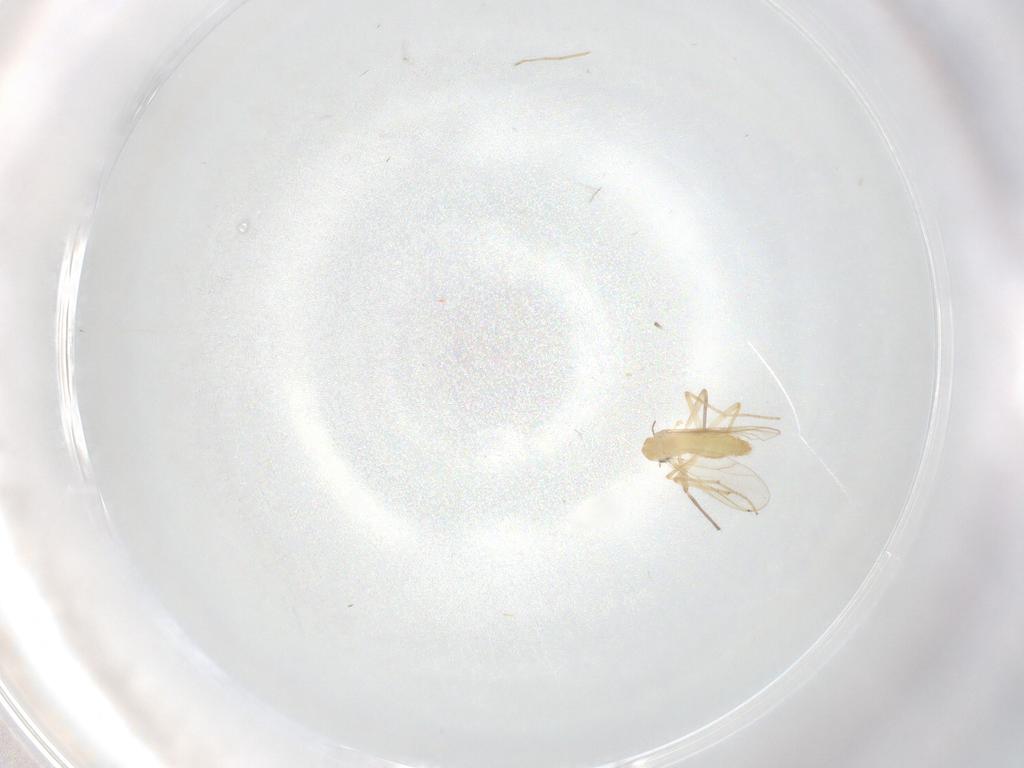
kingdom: Animalia
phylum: Arthropoda
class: Insecta
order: Diptera
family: Chironomidae
